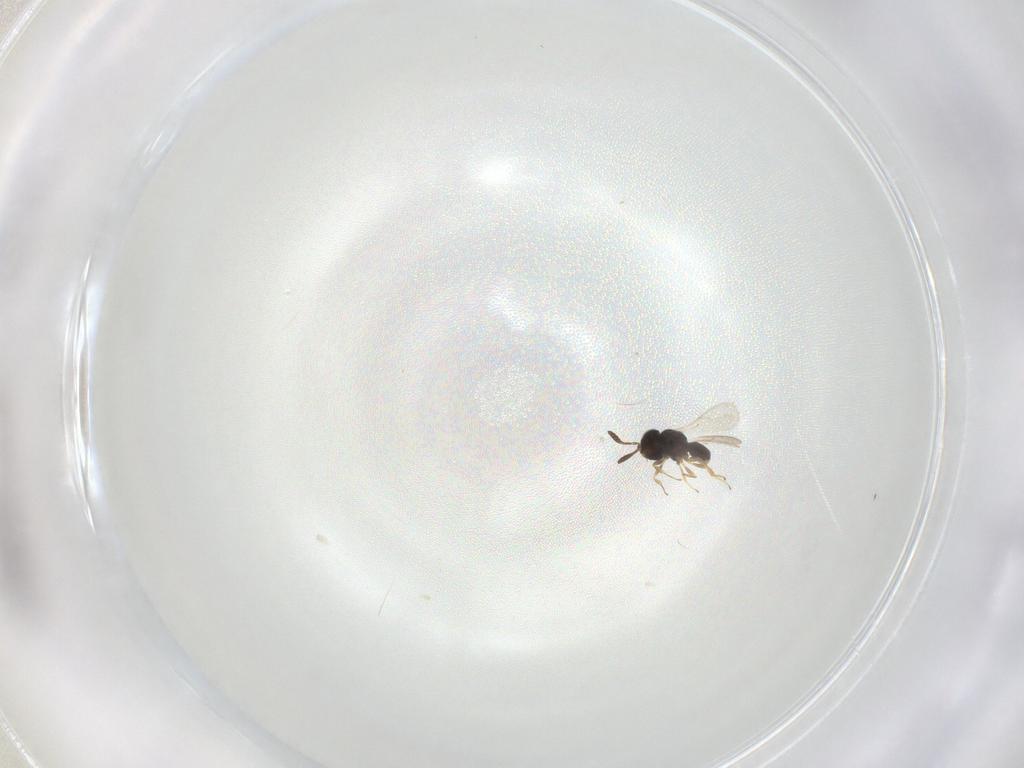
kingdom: Animalia
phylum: Arthropoda
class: Insecta
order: Hymenoptera
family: Scelionidae
